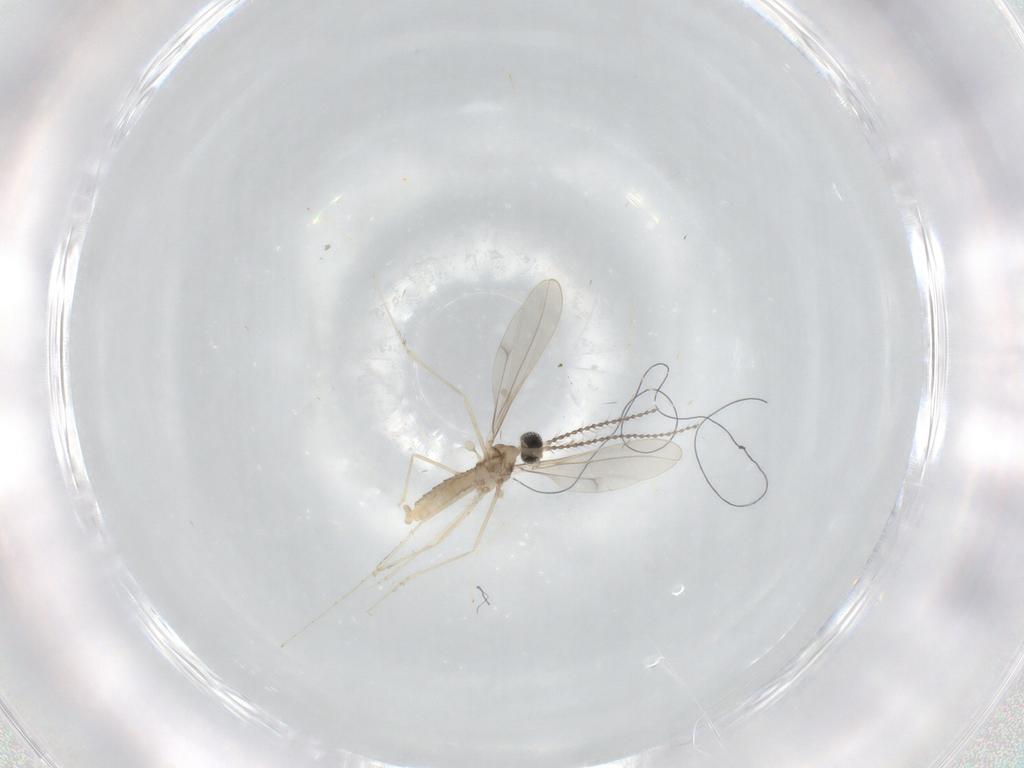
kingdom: Animalia
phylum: Arthropoda
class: Insecta
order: Diptera
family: Cecidomyiidae
